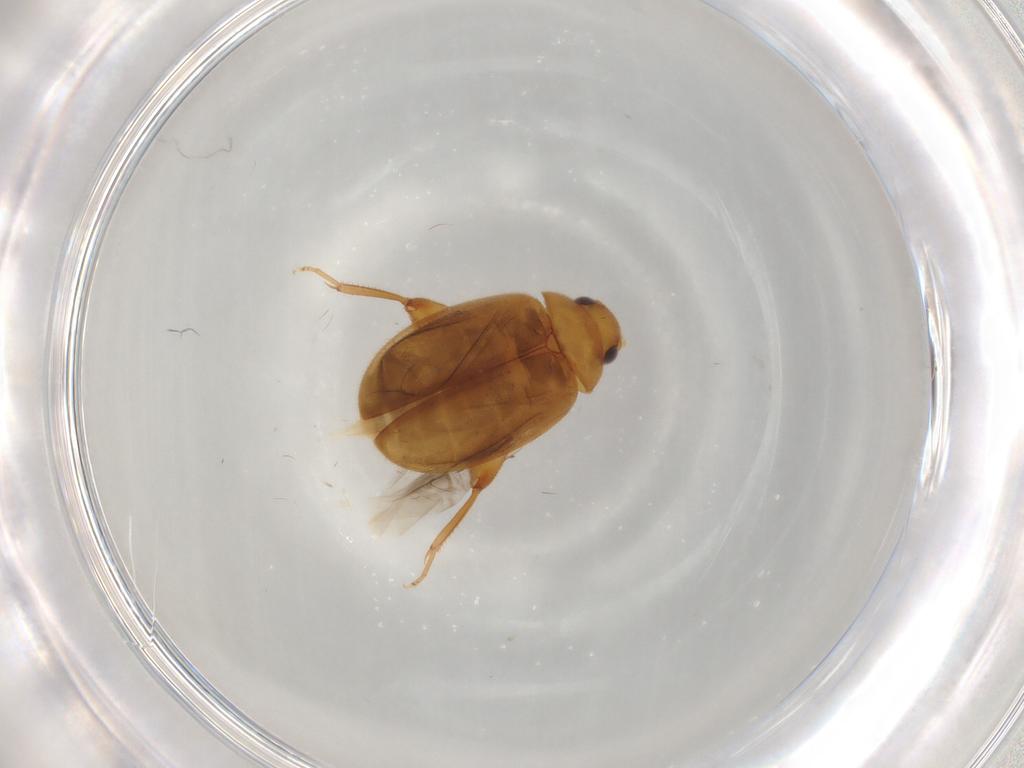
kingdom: Animalia
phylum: Arthropoda
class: Insecta
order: Coleoptera
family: Scirtidae
